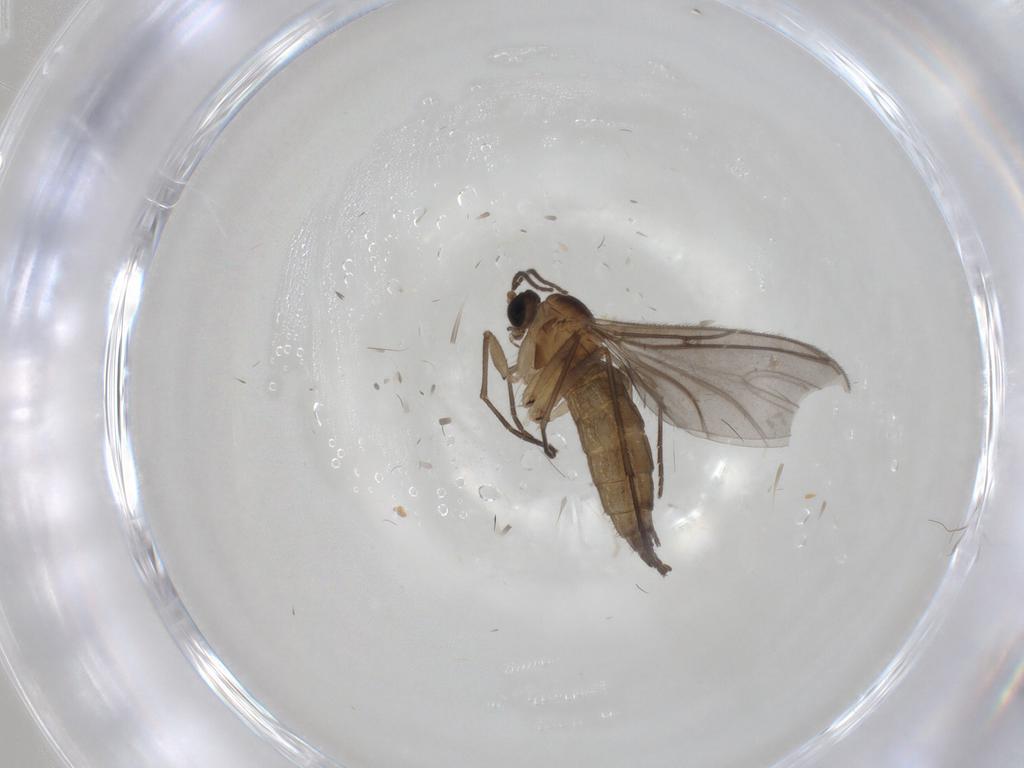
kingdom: Animalia
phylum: Arthropoda
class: Insecta
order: Diptera
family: Sciaridae
